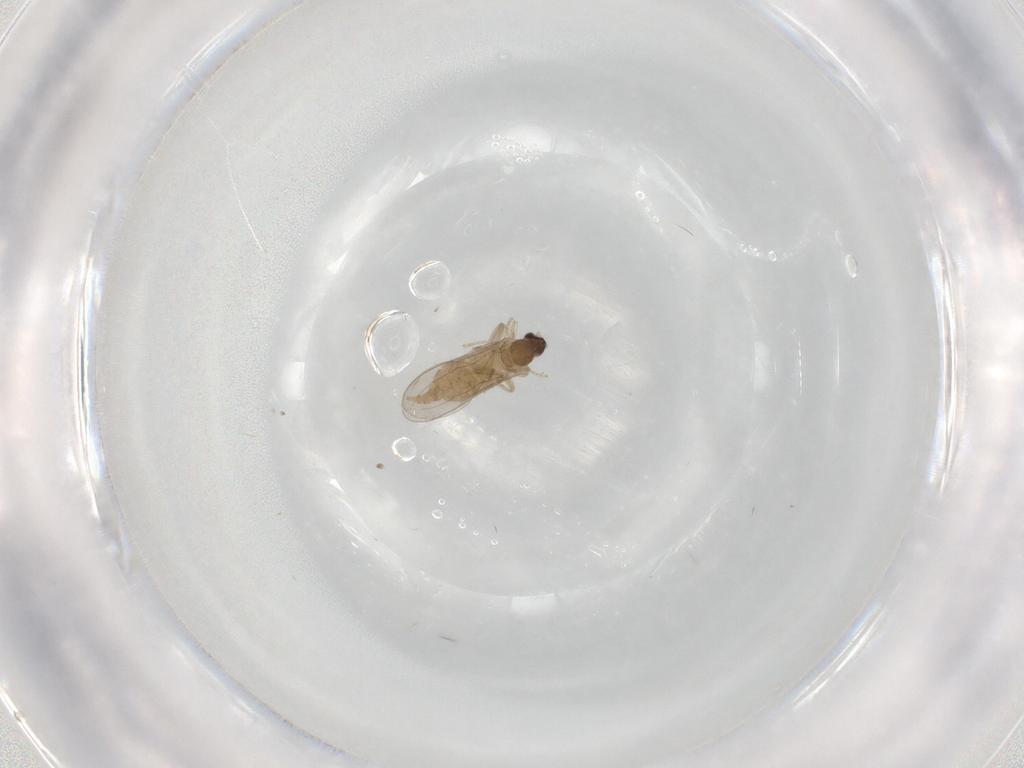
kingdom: Animalia
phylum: Arthropoda
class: Insecta
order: Diptera
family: Cecidomyiidae
